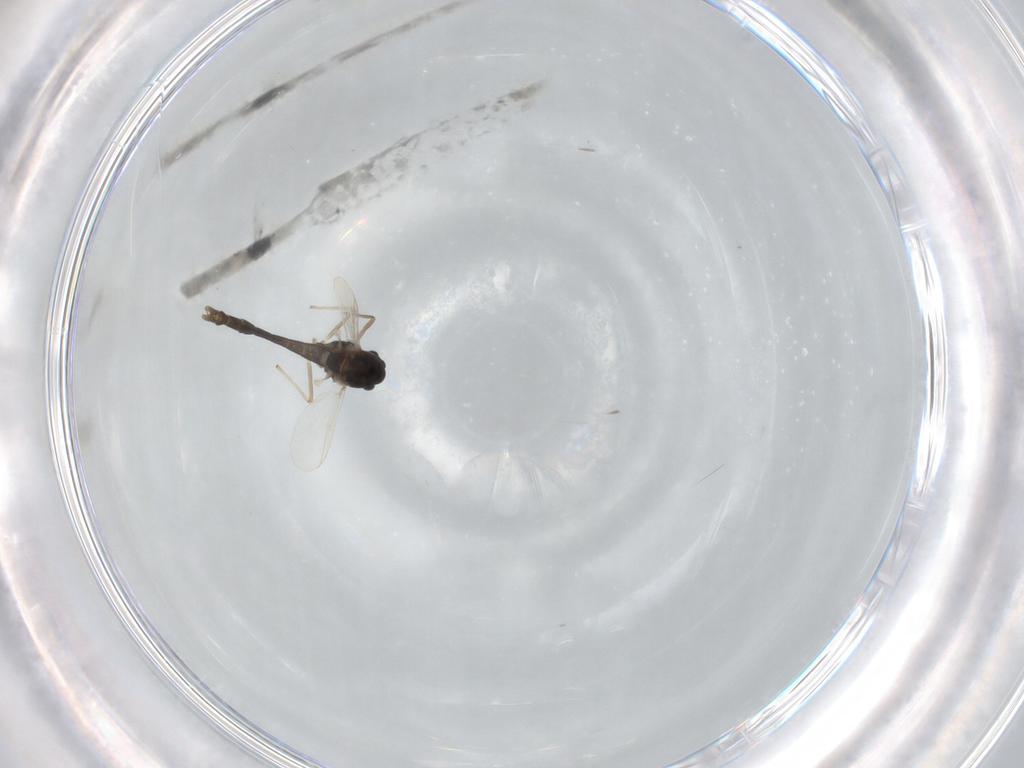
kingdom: Animalia
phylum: Arthropoda
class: Insecta
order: Diptera
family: Chironomidae
